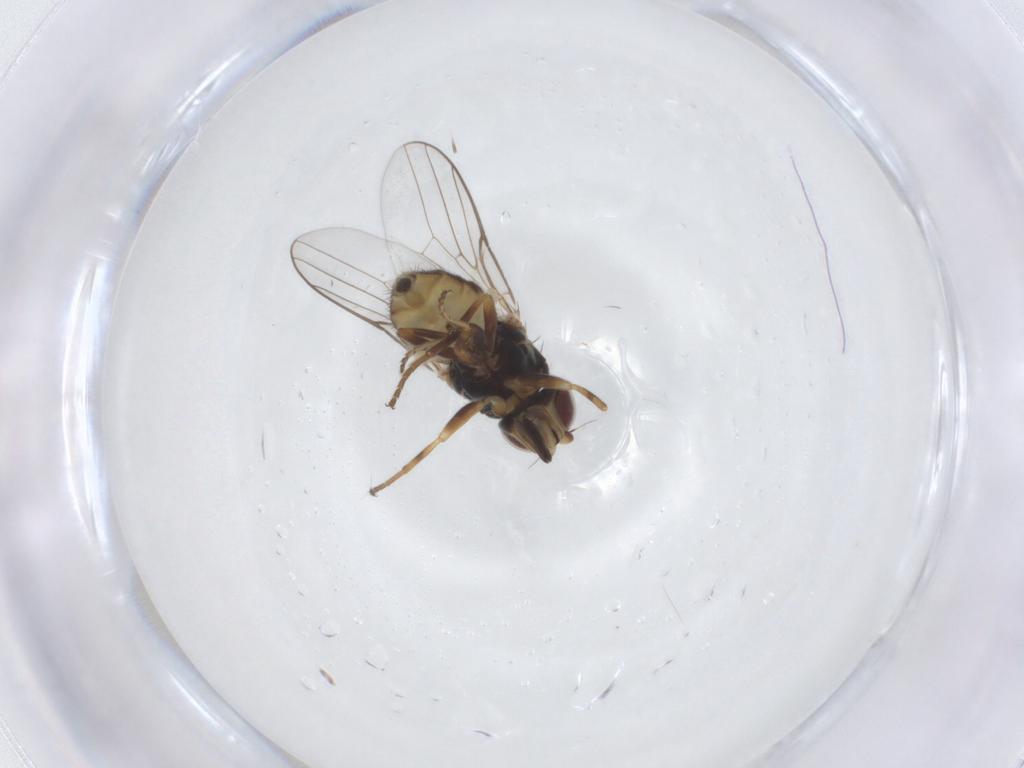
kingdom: Animalia
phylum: Arthropoda
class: Insecta
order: Diptera
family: Chloropidae
